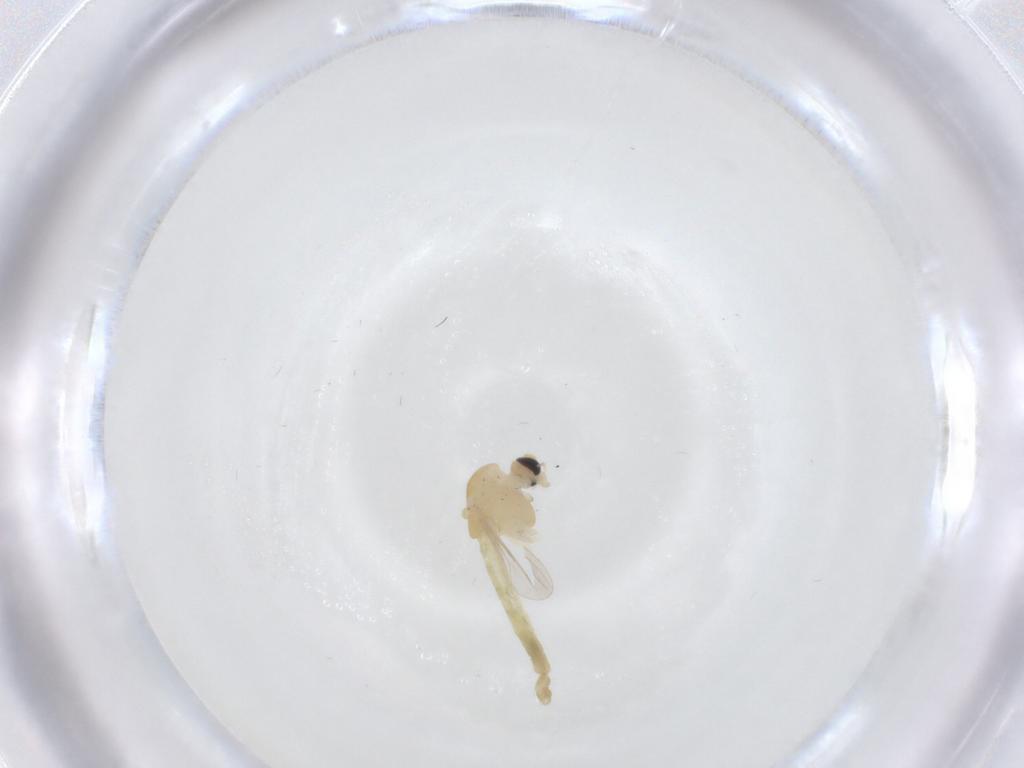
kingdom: Animalia
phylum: Arthropoda
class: Insecta
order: Diptera
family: Chironomidae
